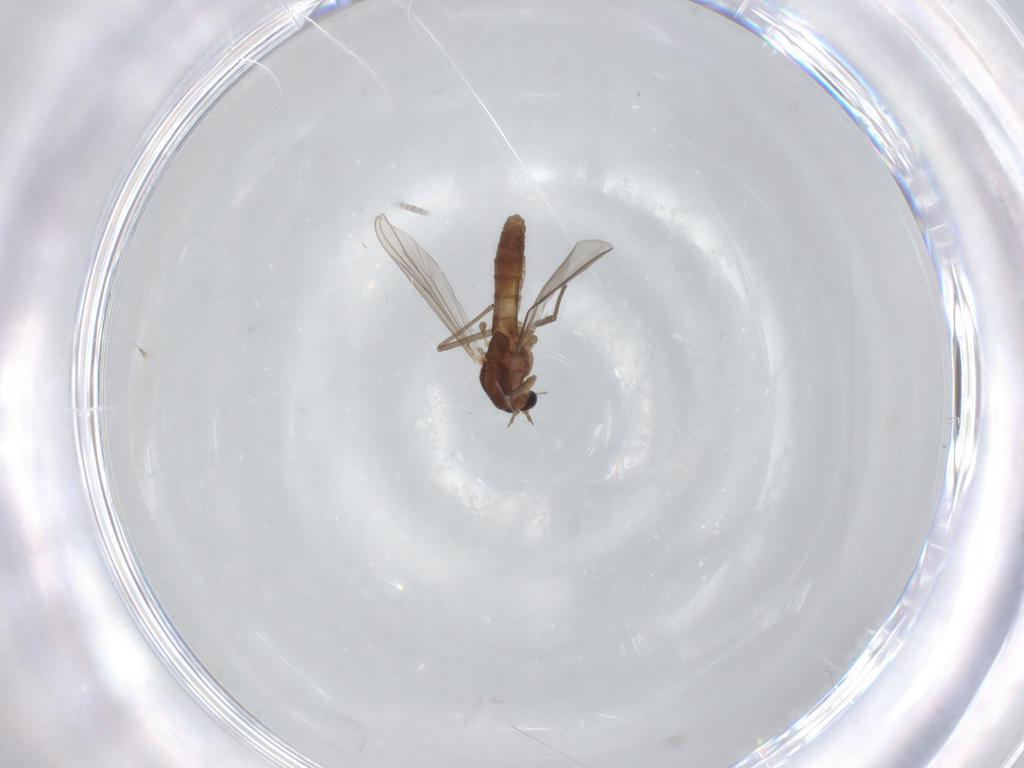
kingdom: Animalia
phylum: Arthropoda
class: Insecta
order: Diptera
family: Chironomidae
